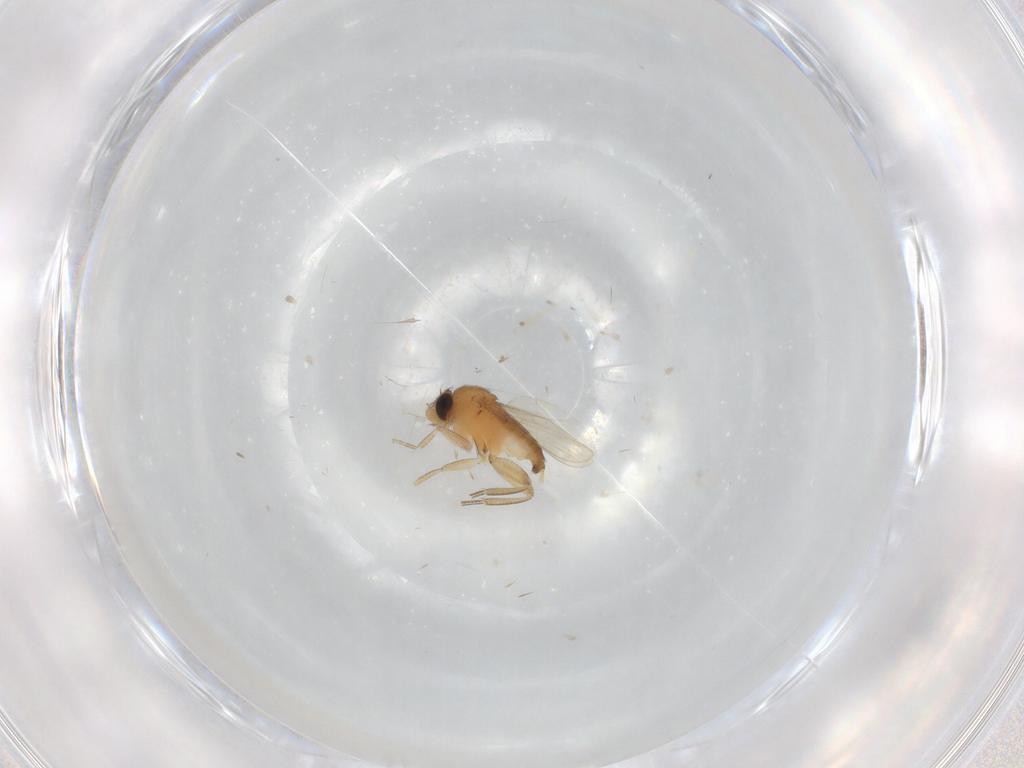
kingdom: Animalia
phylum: Arthropoda
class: Insecta
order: Diptera
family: Phoridae
